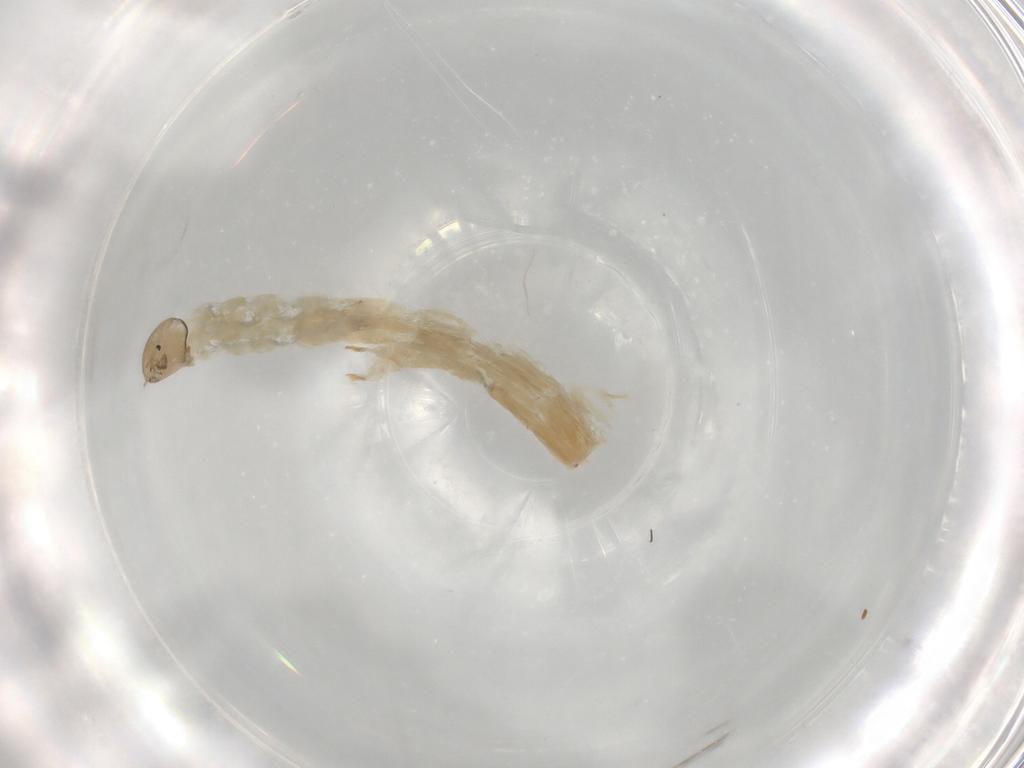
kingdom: Animalia
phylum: Arthropoda
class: Insecta
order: Diptera
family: Chironomidae
